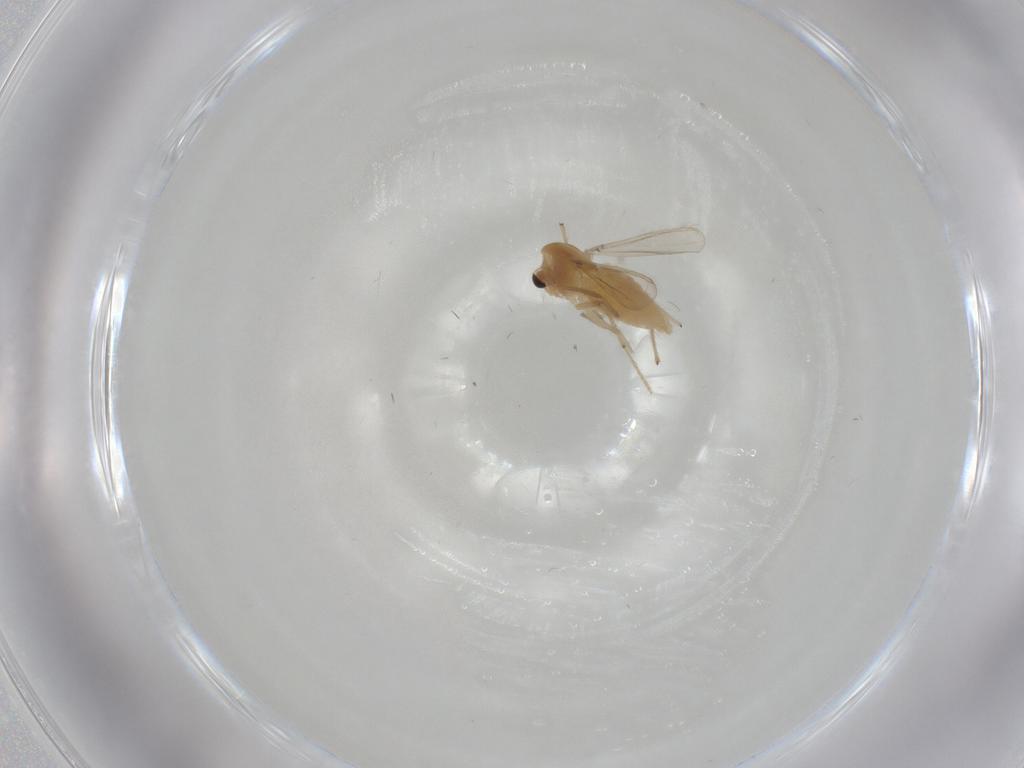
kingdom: Animalia
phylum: Arthropoda
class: Insecta
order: Diptera
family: Chironomidae
